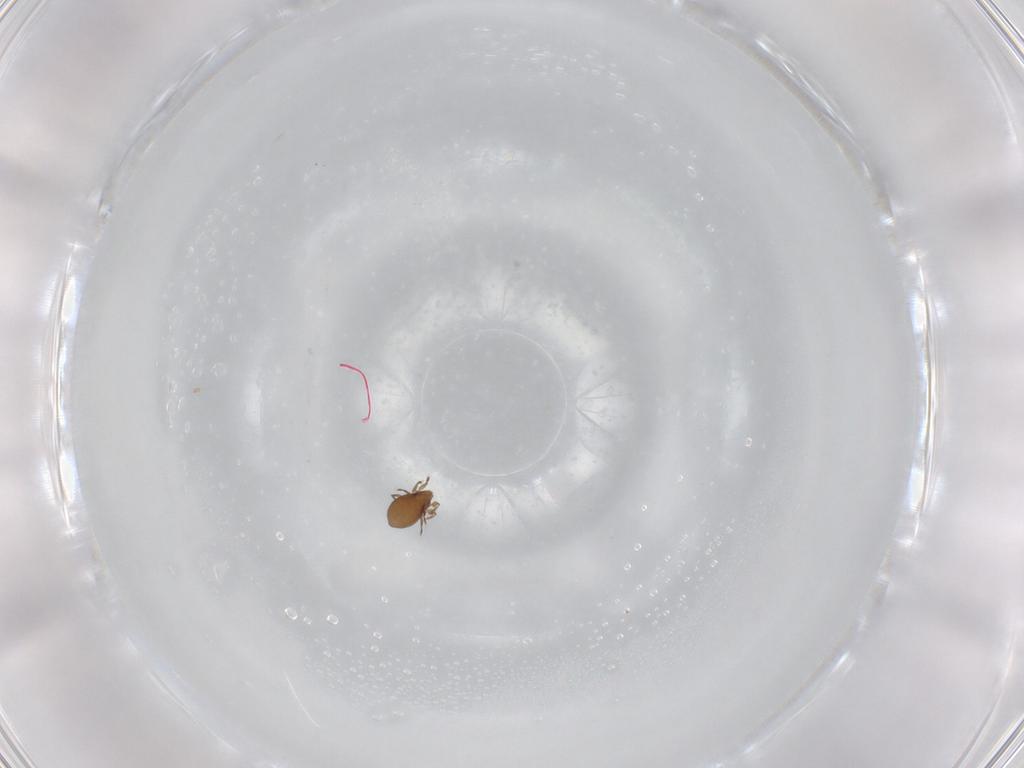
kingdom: Animalia
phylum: Arthropoda
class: Arachnida
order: Sarcoptiformes
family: Oribatulidae
